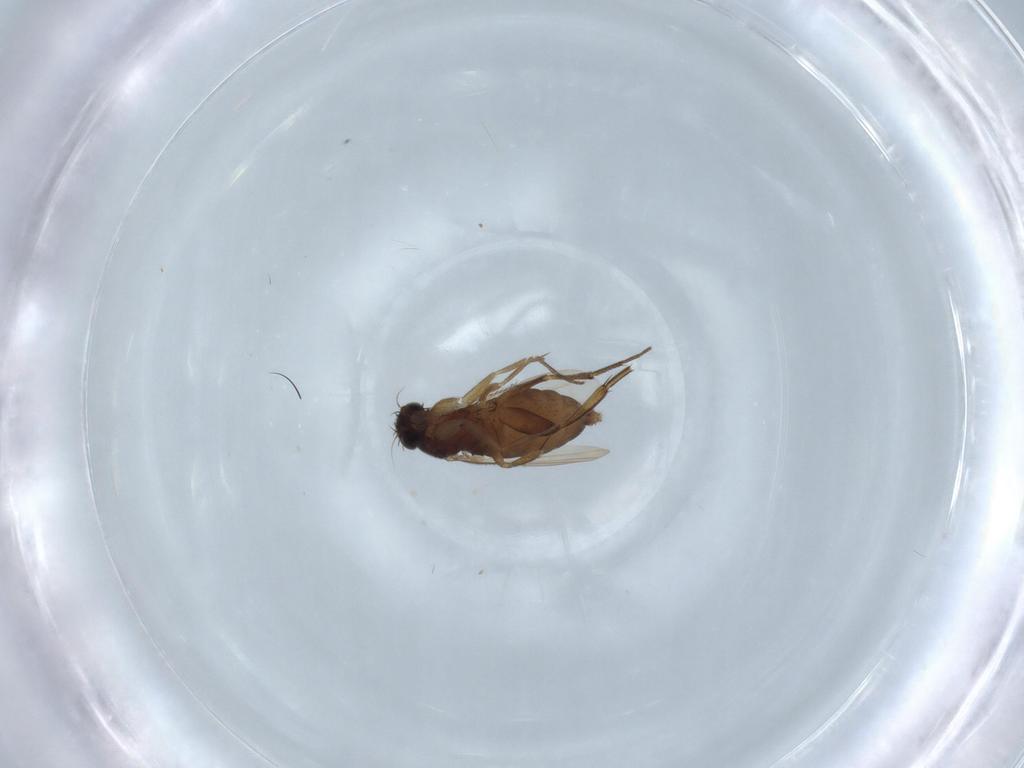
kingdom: Animalia
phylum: Arthropoda
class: Insecta
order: Diptera
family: Phoridae
